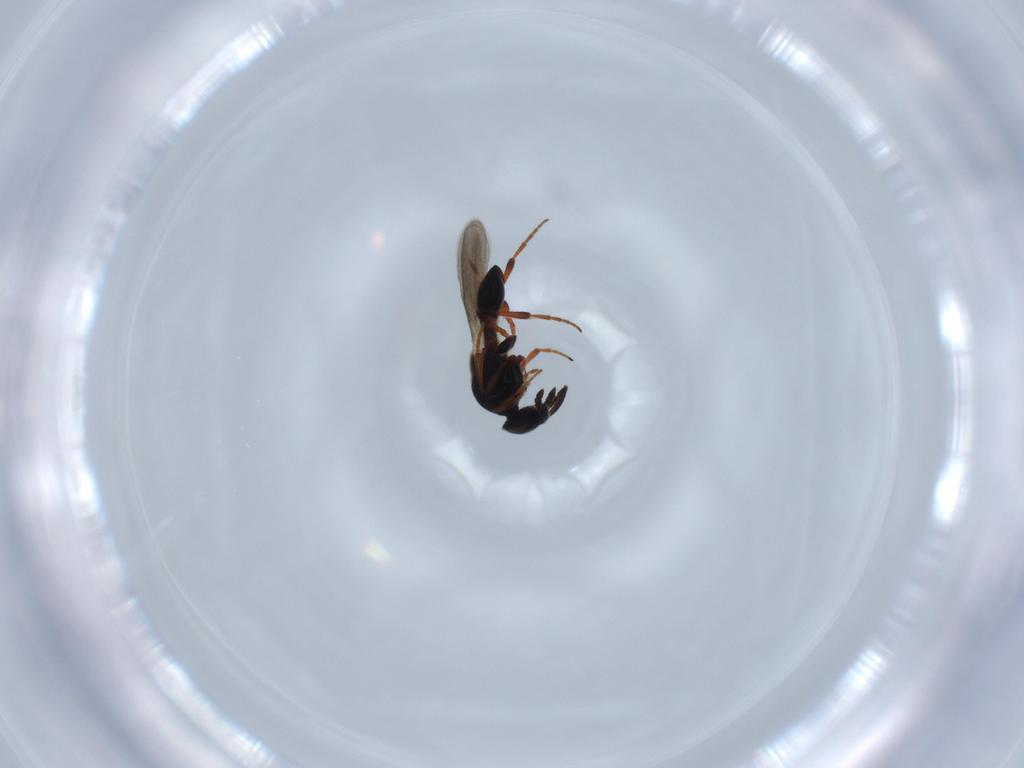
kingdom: Animalia
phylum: Arthropoda
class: Insecta
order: Hymenoptera
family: Platygastridae
